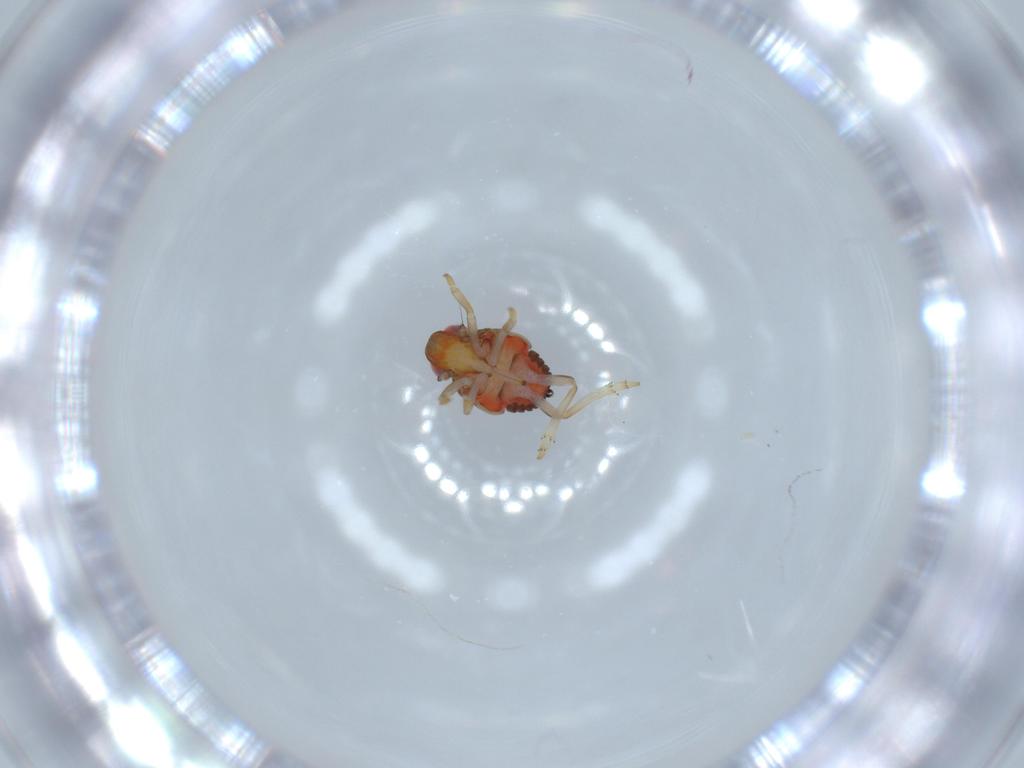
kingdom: Animalia
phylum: Arthropoda
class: Insecta
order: Hemiptera
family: Issidae
